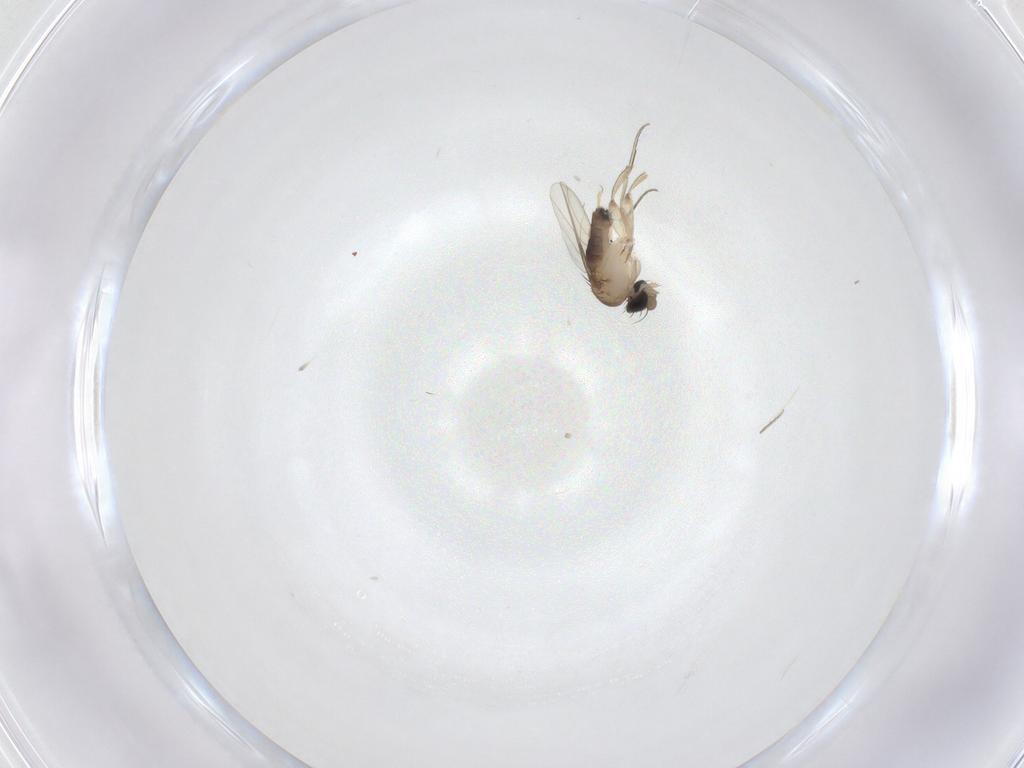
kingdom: Animalia
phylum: Arthropoda
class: Insecta
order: Diptera
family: Phoridae
